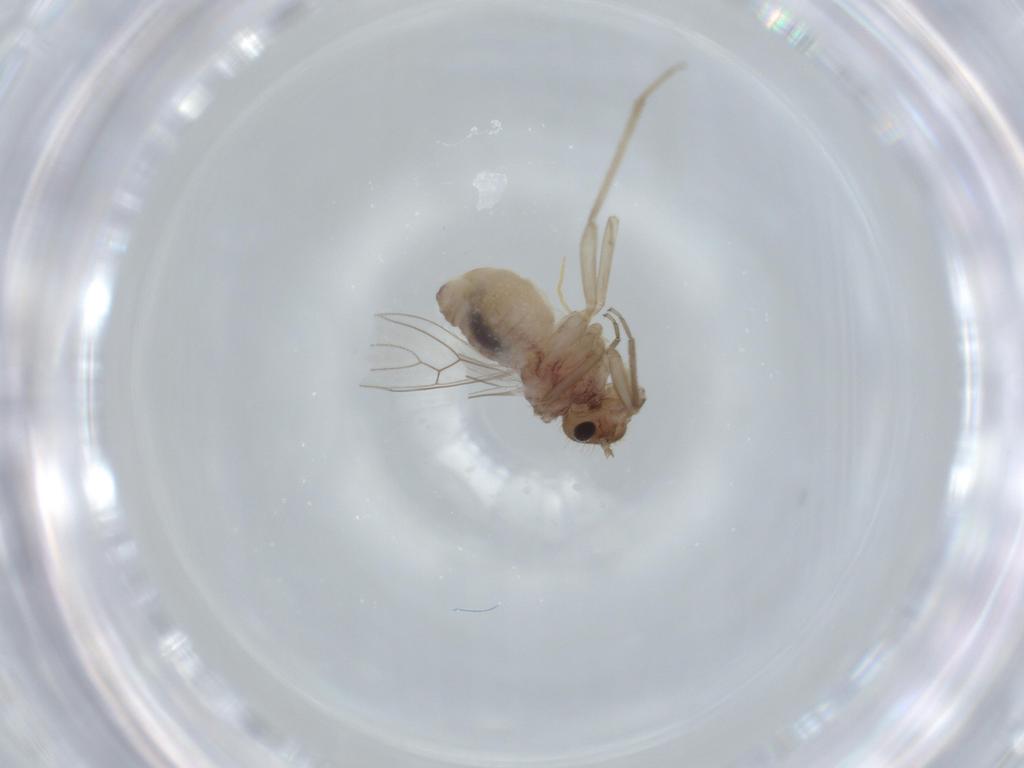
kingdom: Animalia
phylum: Arthropoda
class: Insecta
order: Psocodea
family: Cladiopsocidae
